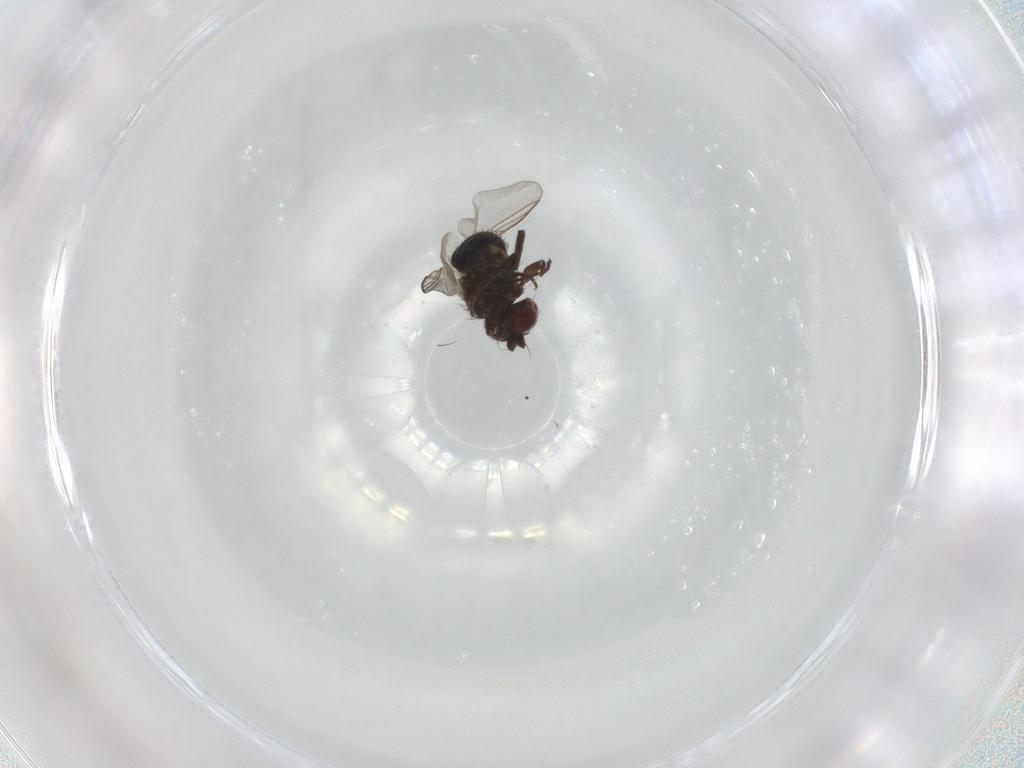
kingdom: Animalia
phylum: Arthropoda
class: Insecta
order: Diptera
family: Agromyzidae
